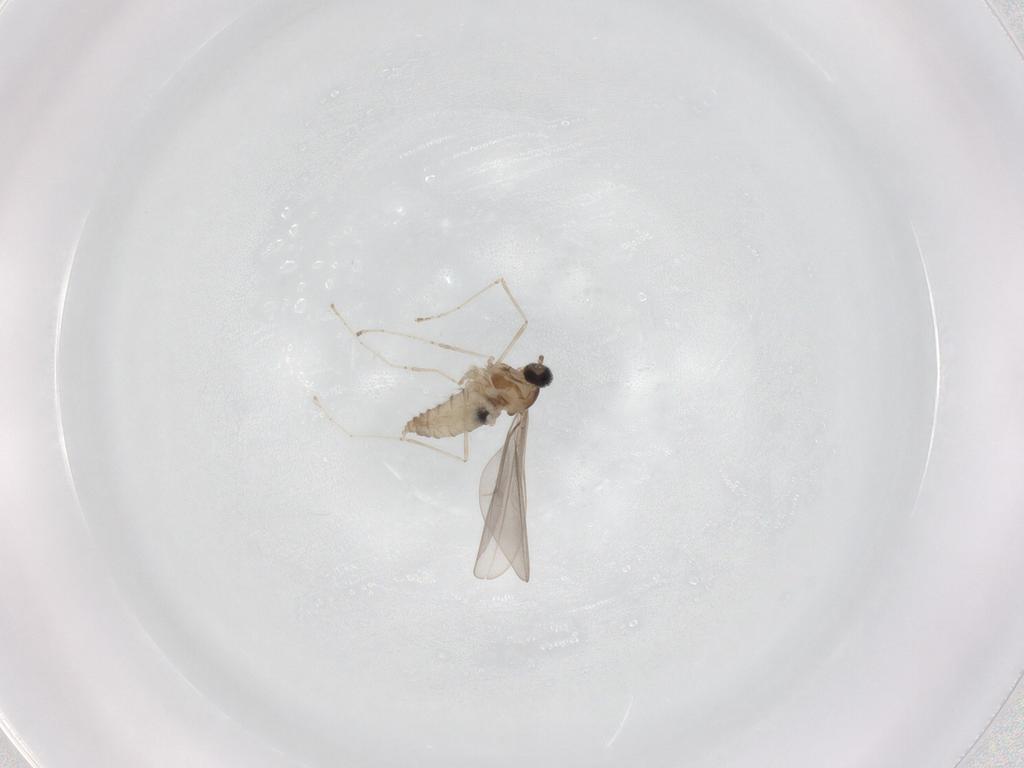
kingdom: Animalia
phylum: Arthropoda
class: Insecta
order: Diptera
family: Cecidomyiidae
